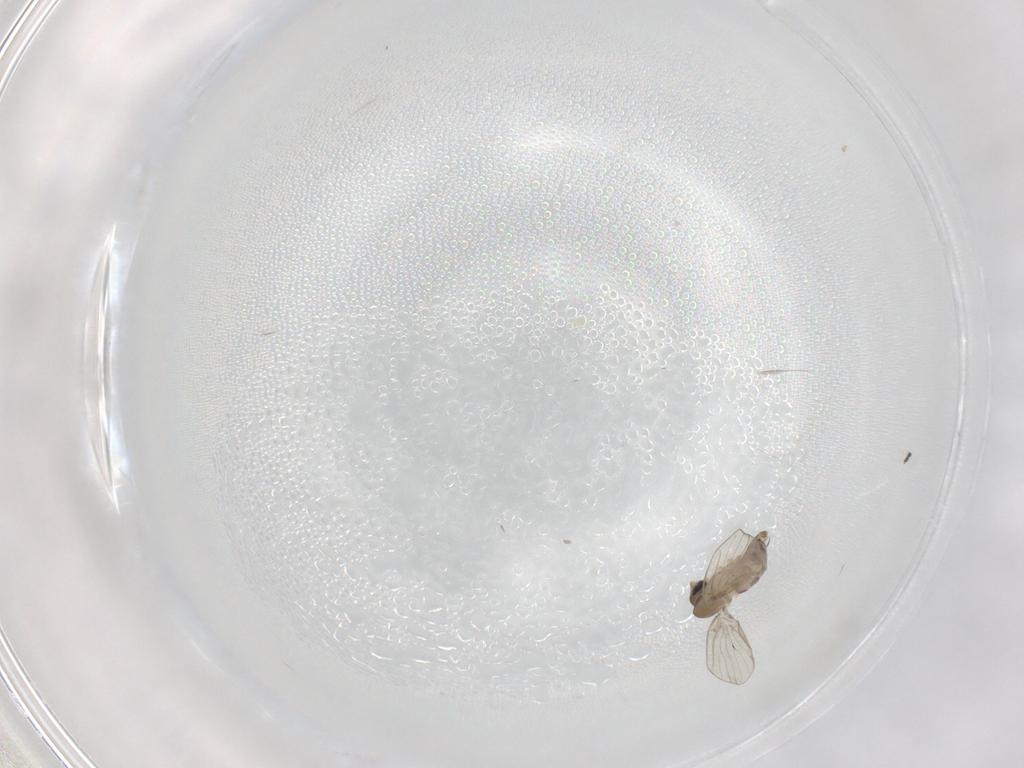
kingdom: Animalia
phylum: Arthropoda
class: Insecta
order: Diptera
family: Psychodidae
